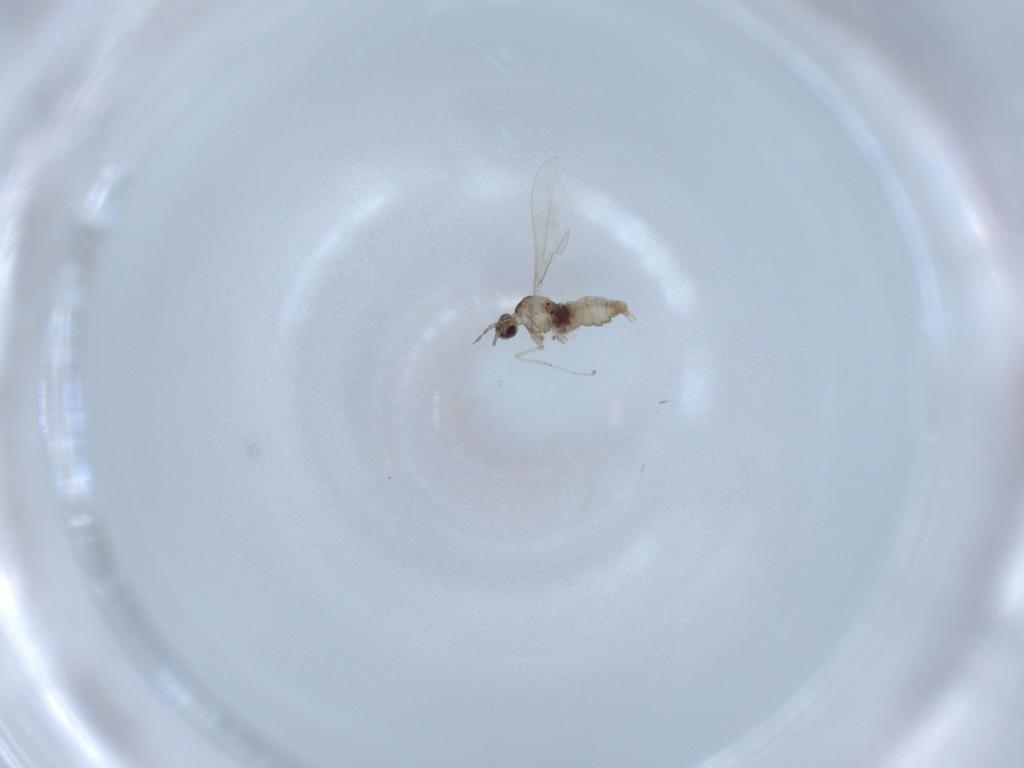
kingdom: Animalia
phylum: Arthropoda
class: Insecta
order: Diptera
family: Cecidomyiidae
